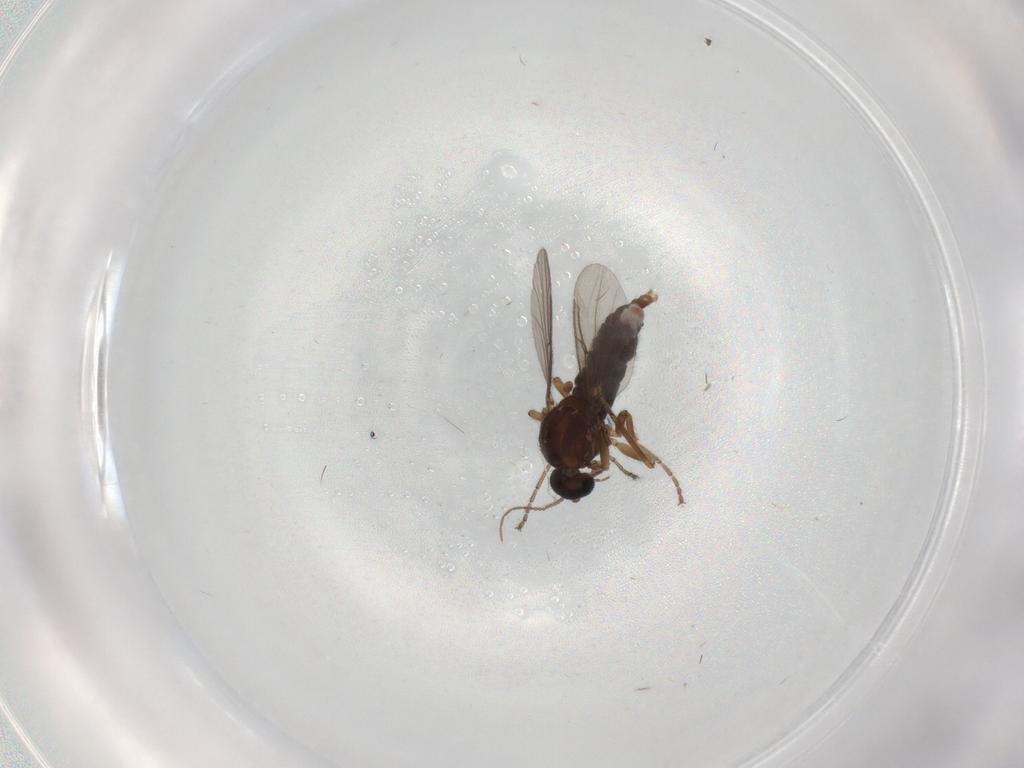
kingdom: Animalia
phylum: Arthropoda
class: Insecta
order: Diptera
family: Ceratopogonidae
